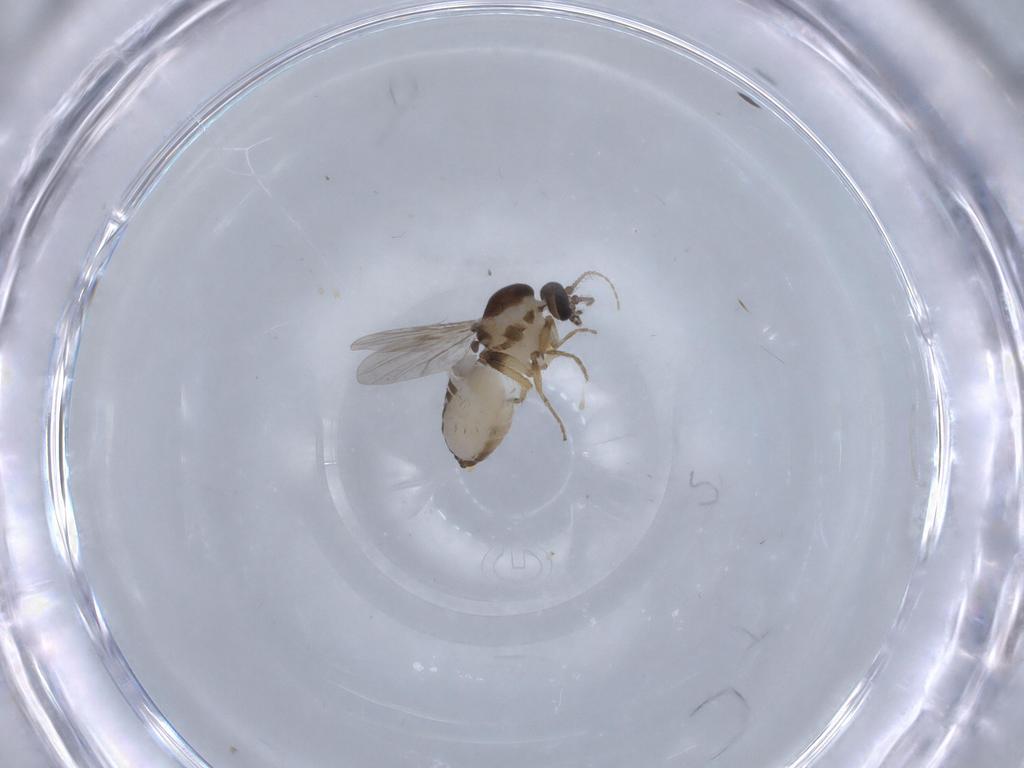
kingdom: Animalia
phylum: Arthropoda
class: Insecta
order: Diptera
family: Ceratopogonidae
